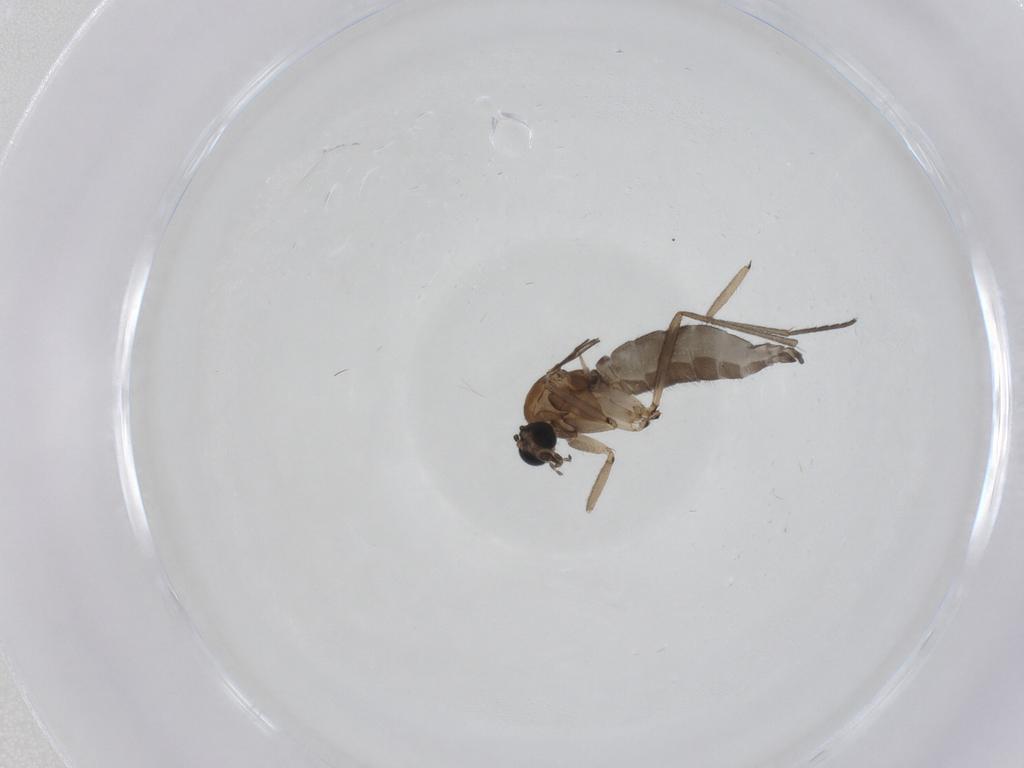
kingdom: Animalia
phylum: Arthropoda
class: Insecta
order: Diptera
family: Sciaridae
